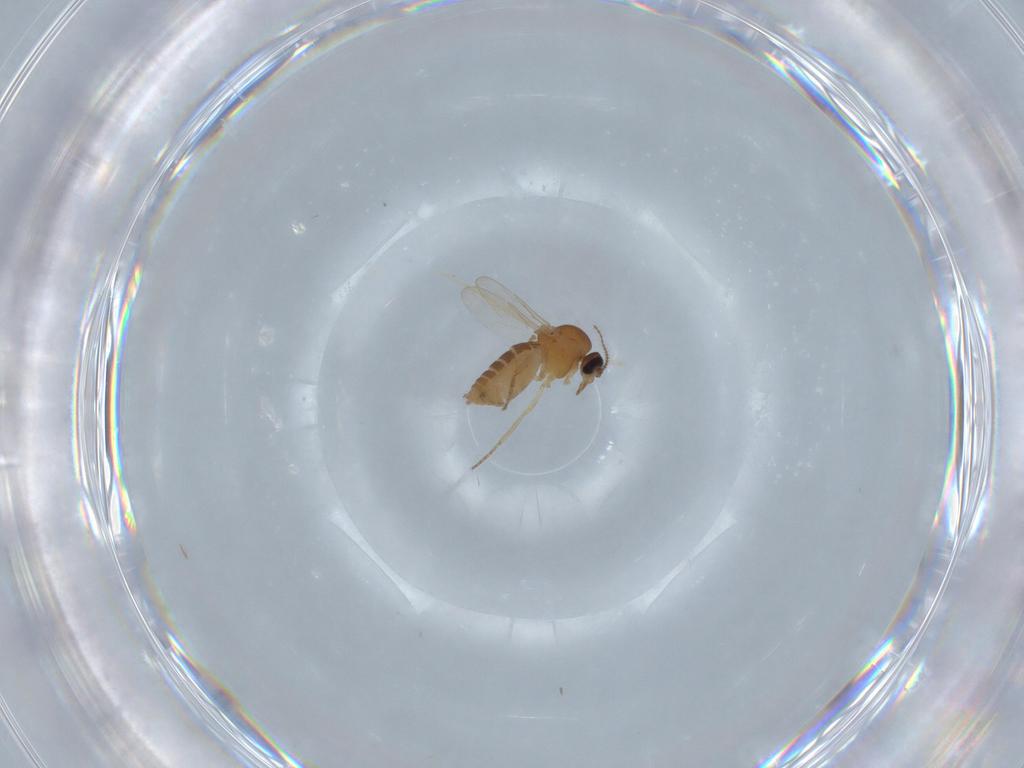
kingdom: Animalia
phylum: Arthropoda
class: Insecta
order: Diptera
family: Ceratopogonidae
